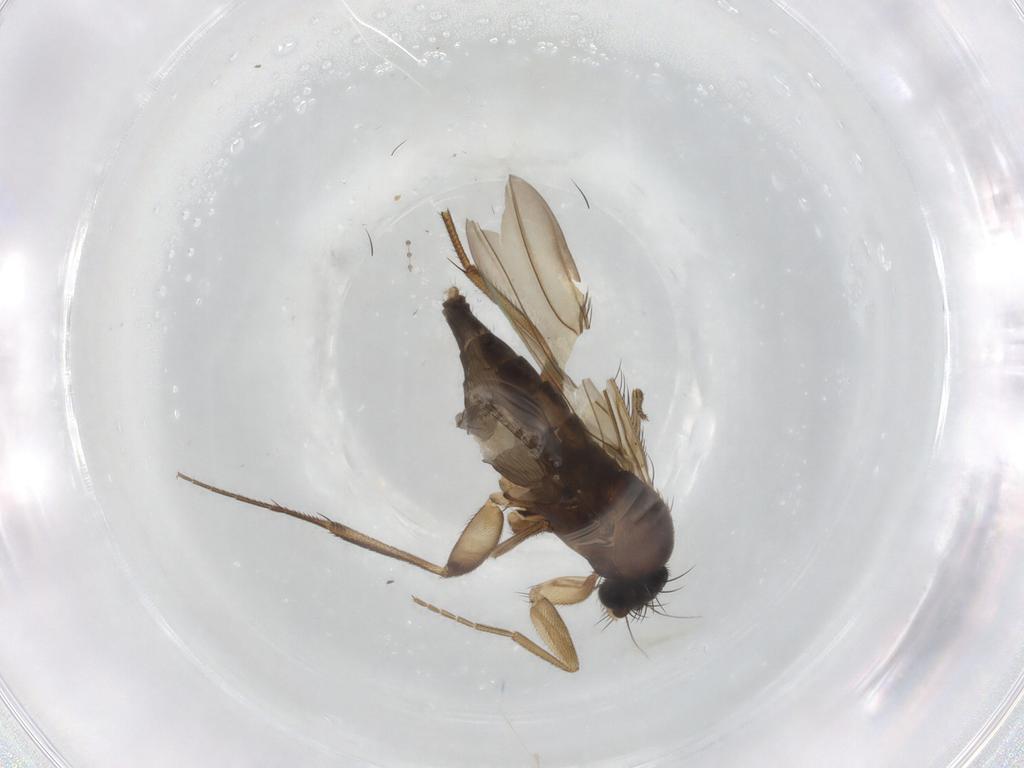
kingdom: Animalia
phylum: Arthropoda
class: Insecta
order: Diptera
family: Phoridae
